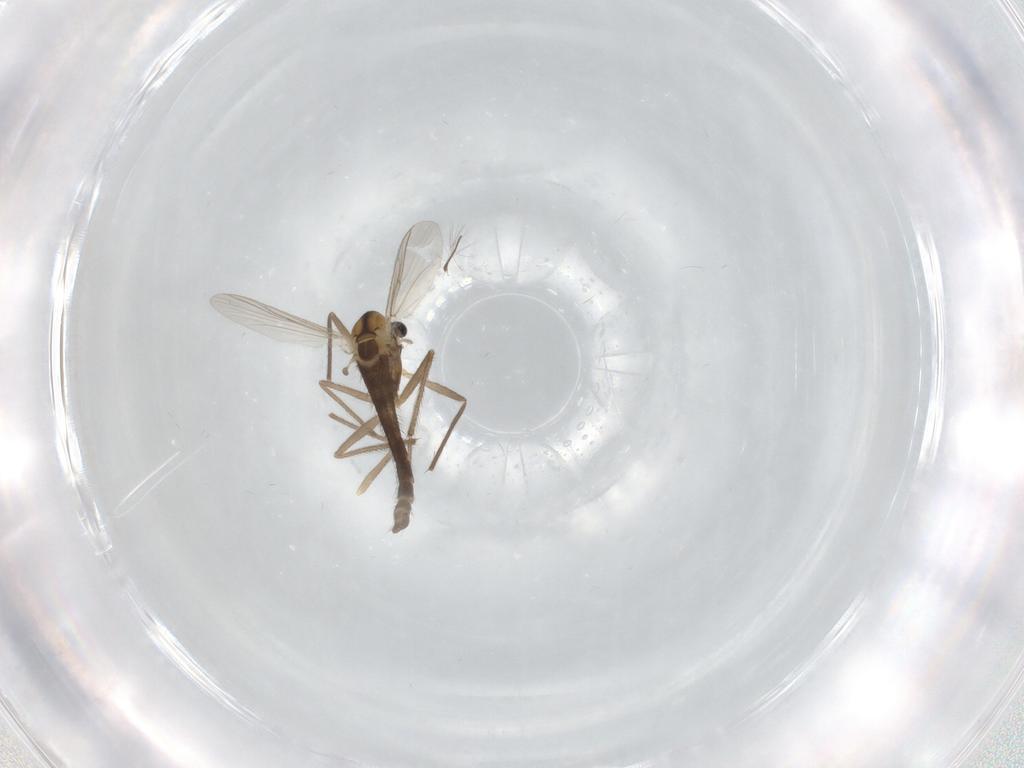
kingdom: Animalia
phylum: Arthropoda
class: Insecta
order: Diptera
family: Chironomidae
